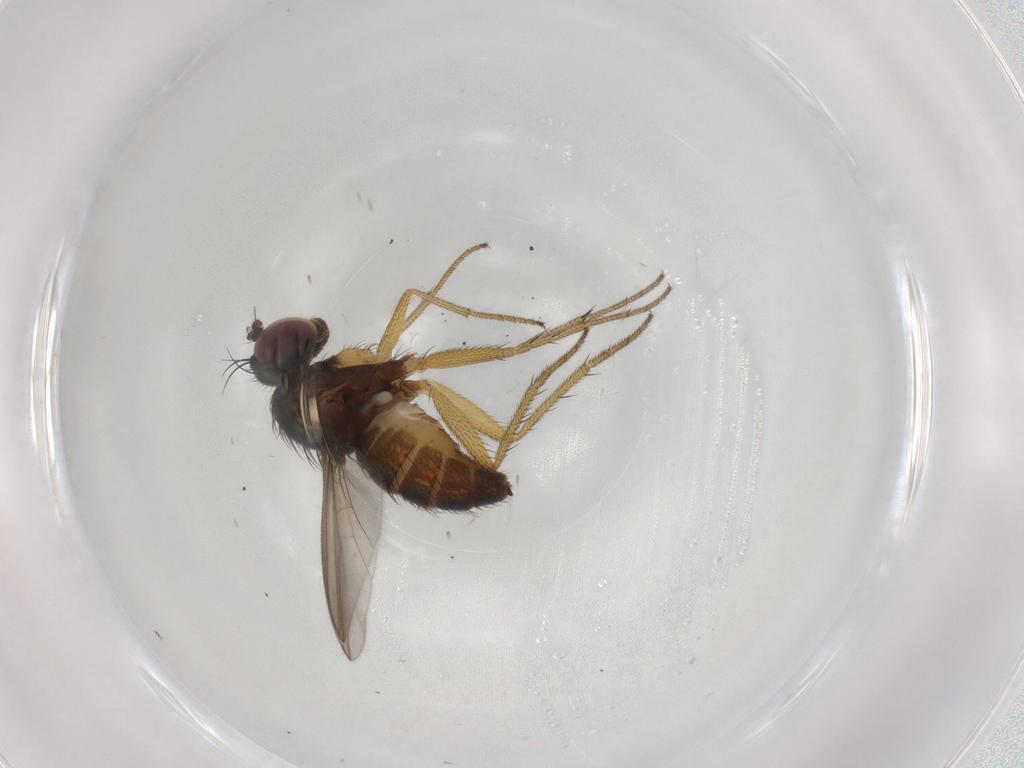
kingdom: Animalia
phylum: Arthropoda
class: Insecta
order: Diptera
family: Dolichopodidae
